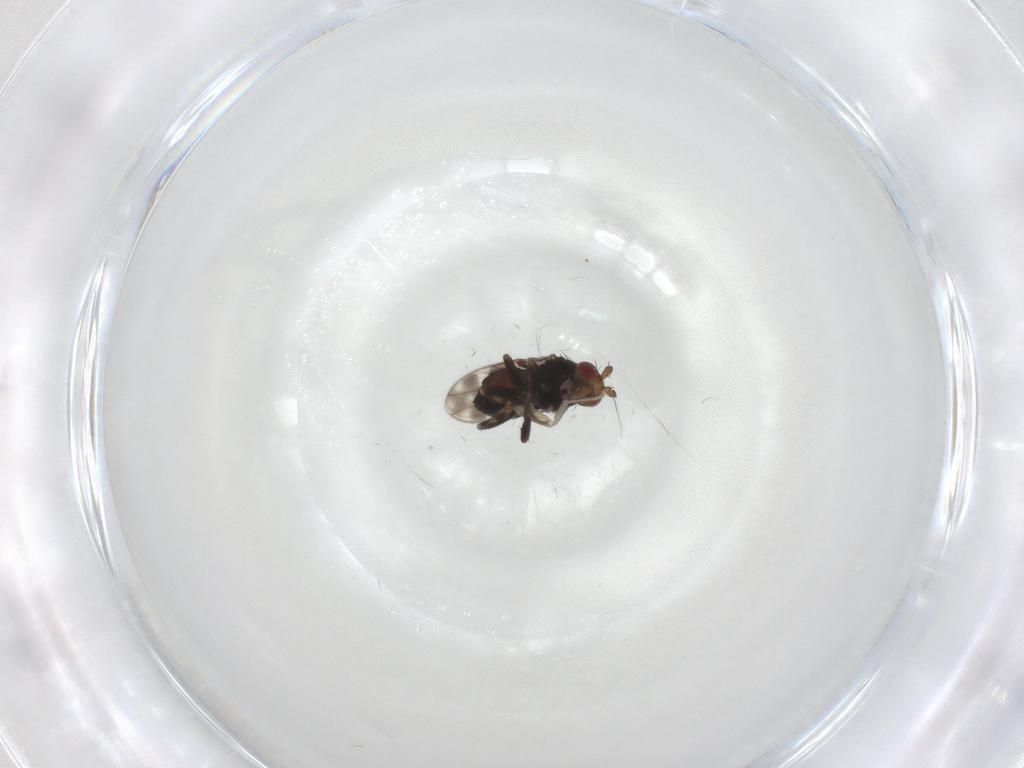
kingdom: Animalia
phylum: Arthropoda
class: Insecta
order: Diptera
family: Sphaeroceridae
